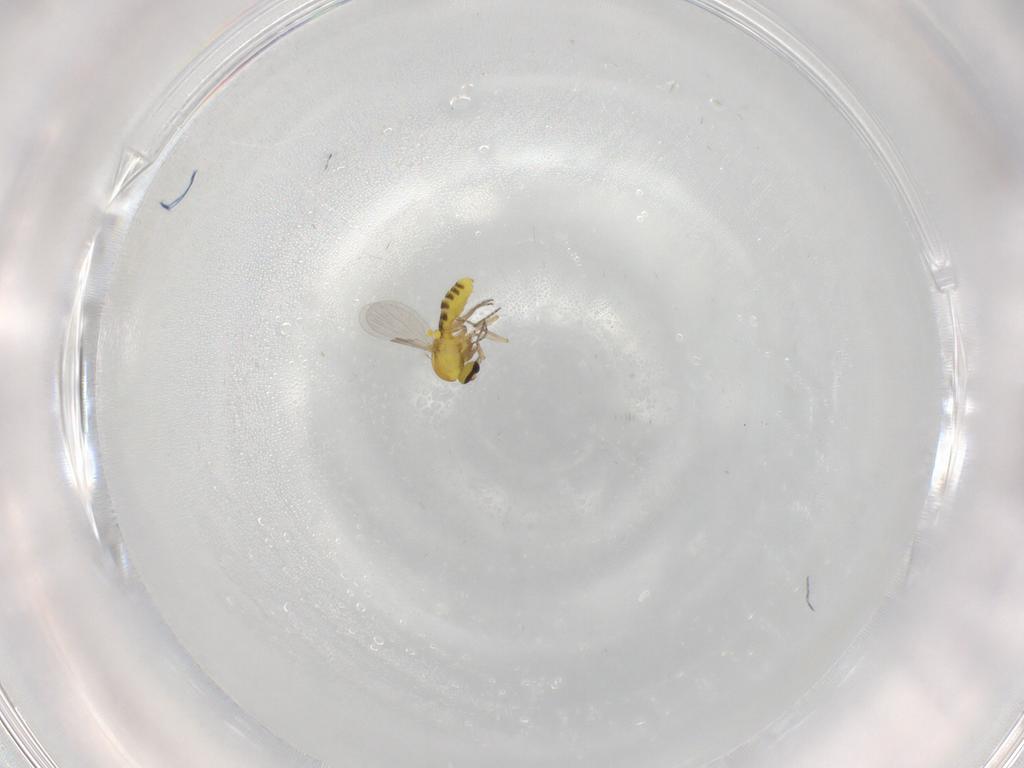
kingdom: Animalia
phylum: Arthropoda
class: Insecta
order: Diptera
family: Ceratopogonidae
